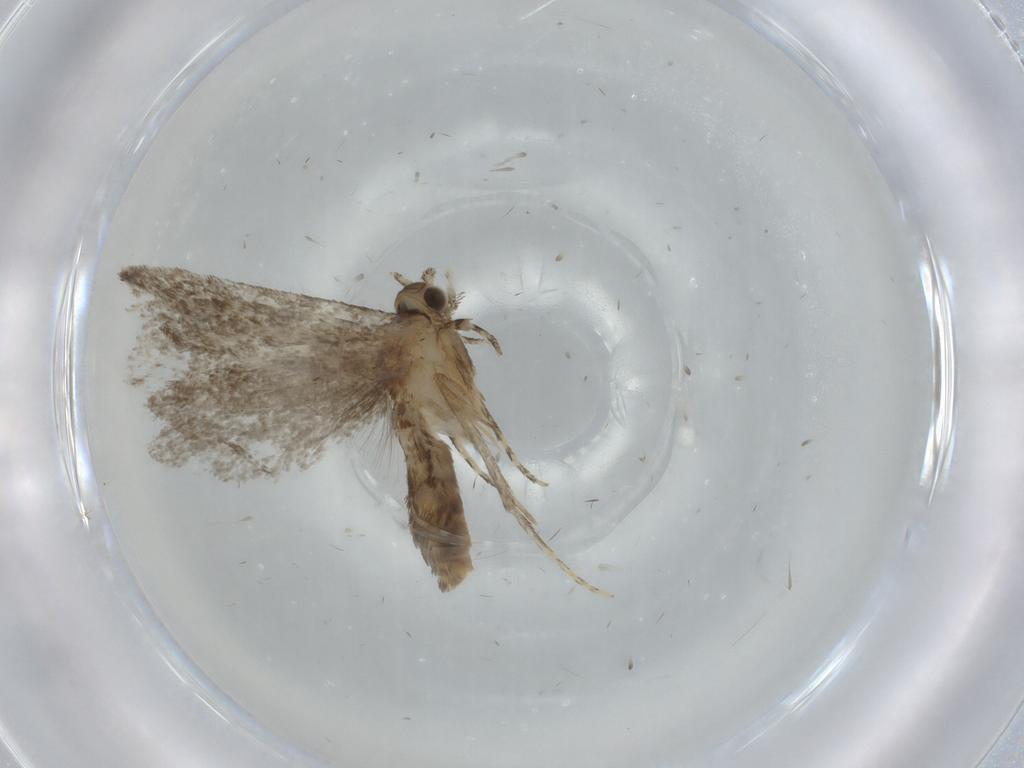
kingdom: Animalia
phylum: Arthropoda
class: Insecta
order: Lepidoptera
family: Tineidae
